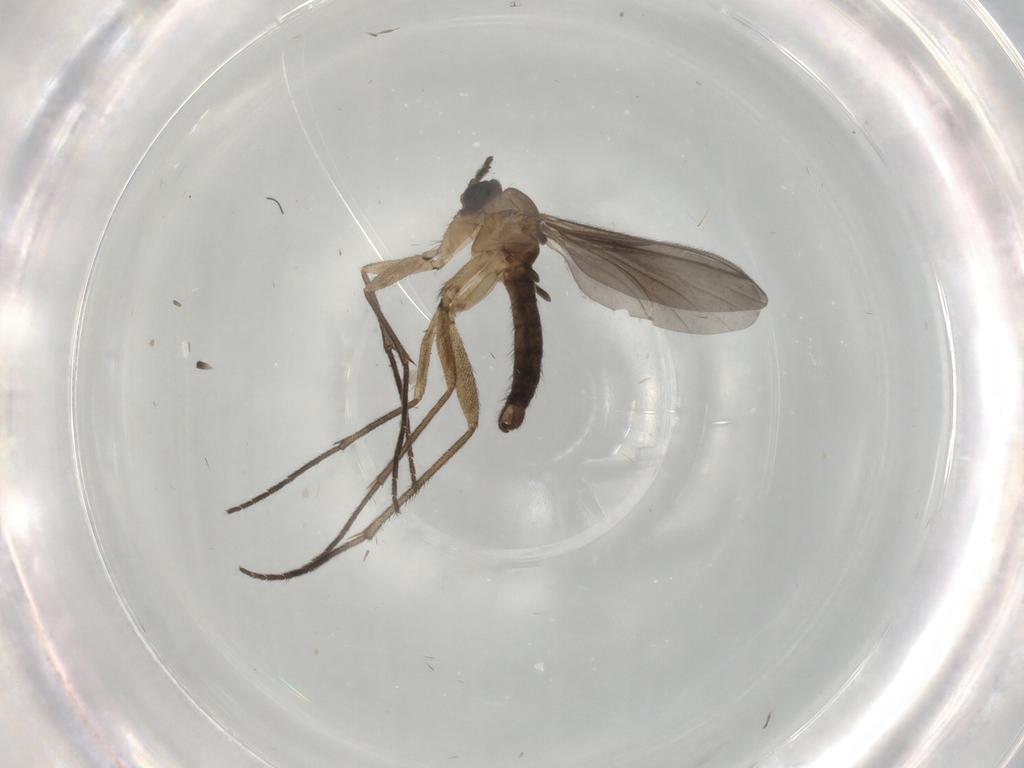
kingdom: Animalia
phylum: Arthropoda
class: Insecta
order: Diptera
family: Sciaridae
